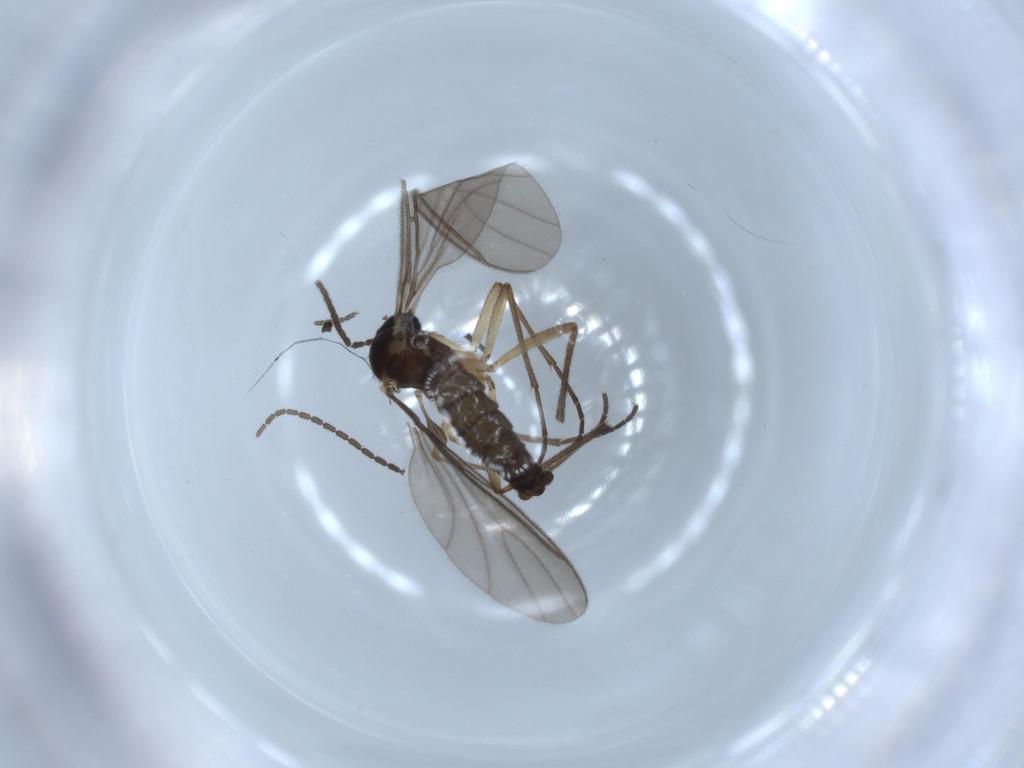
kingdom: Animalia
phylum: Arthropoda
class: Insecta
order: Diptera
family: Sciaridae
